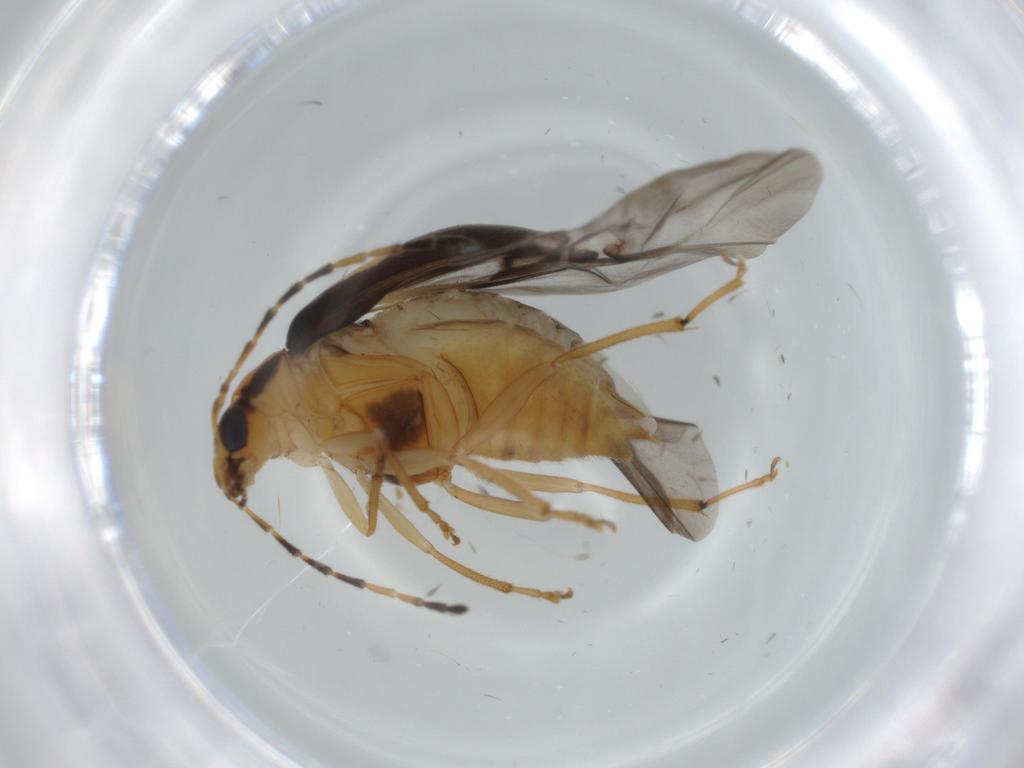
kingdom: Animalia
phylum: Arthropoda
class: Insecta
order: Coleoptera
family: Chrysomelidae
